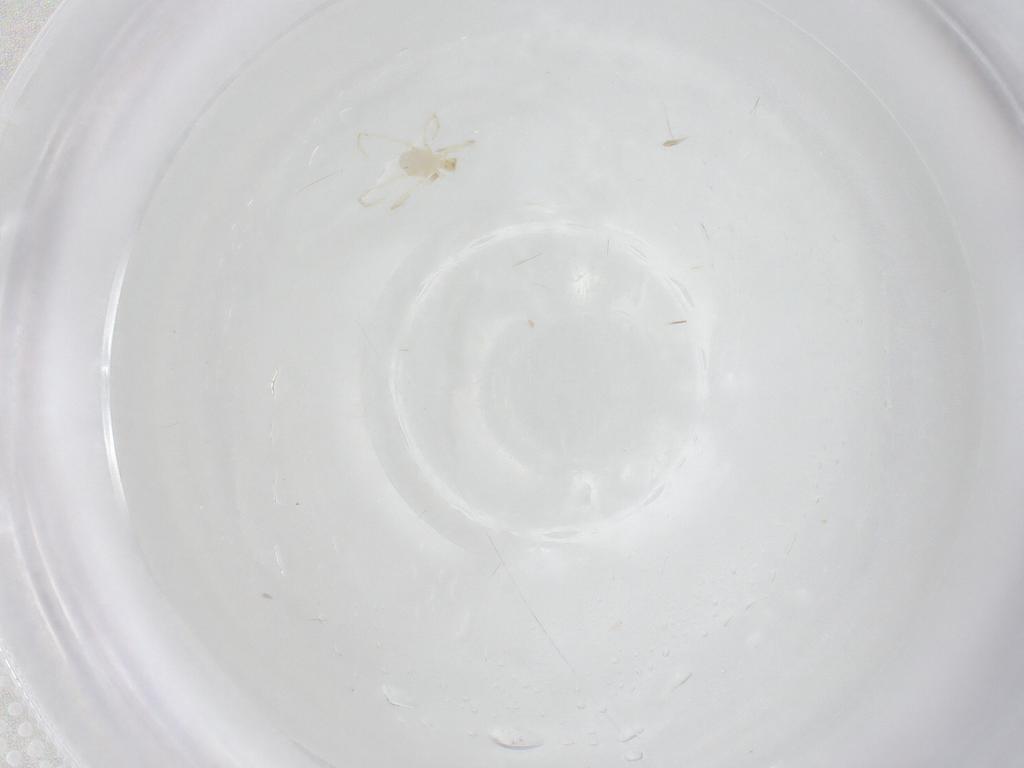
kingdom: Animalia
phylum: Arthropoda
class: Arachnida
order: Trombidiformes
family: Erythraeidae
